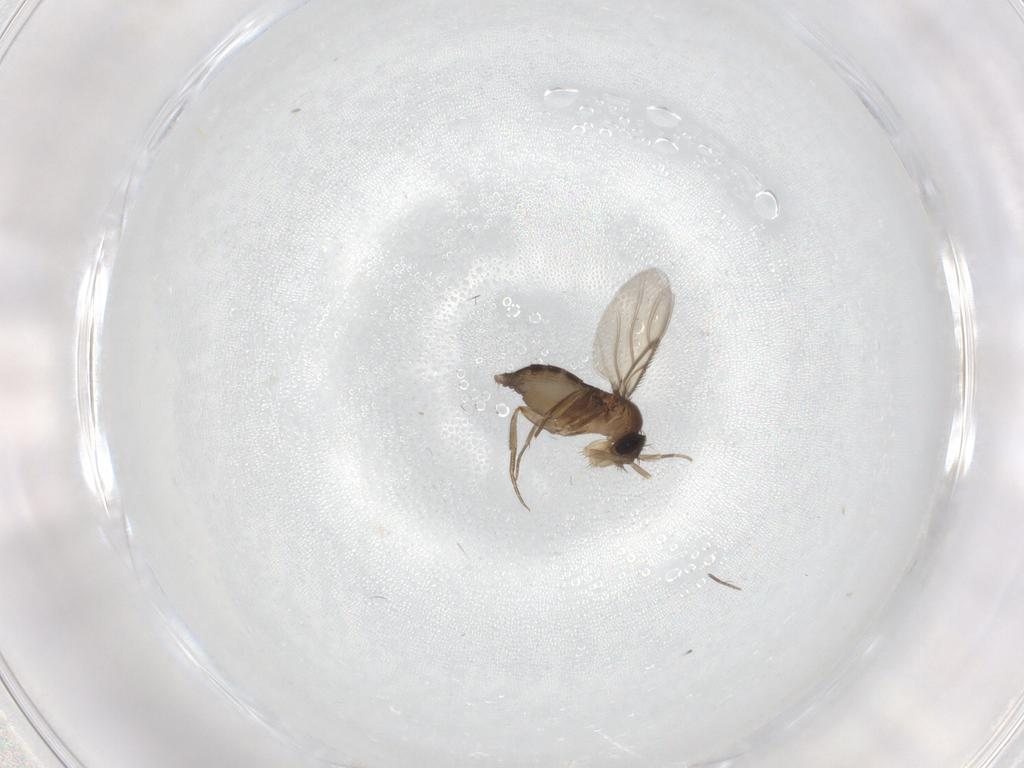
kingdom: Animalia
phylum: Arthropoda
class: Insecta
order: Diptera
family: Phoridae
